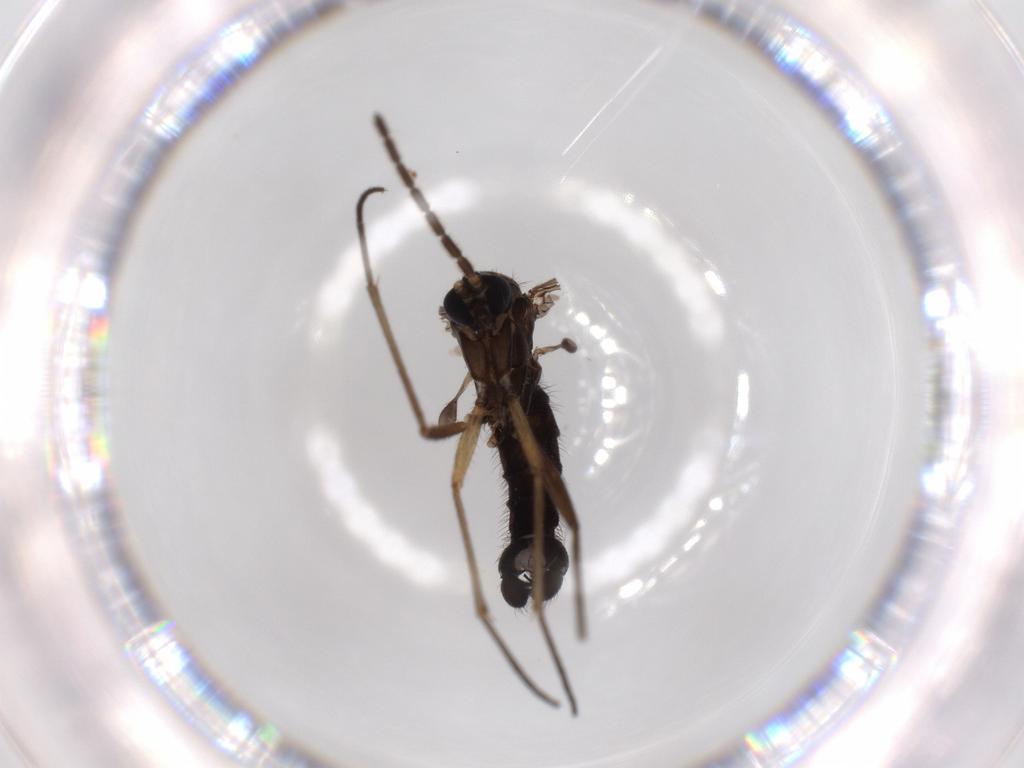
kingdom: Animalia
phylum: Arthropoda
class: Insecta
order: Diptera
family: Sciaridae
